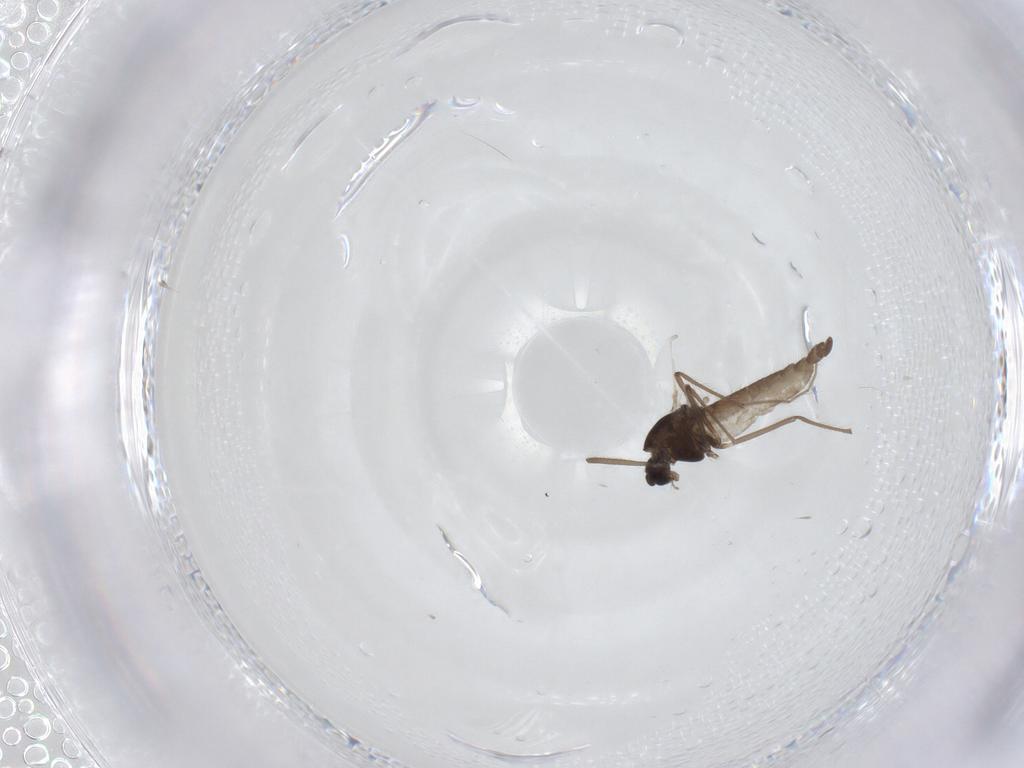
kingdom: Animalia
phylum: Arthropoda
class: Insecta
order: Diptera
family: Chironomidae
